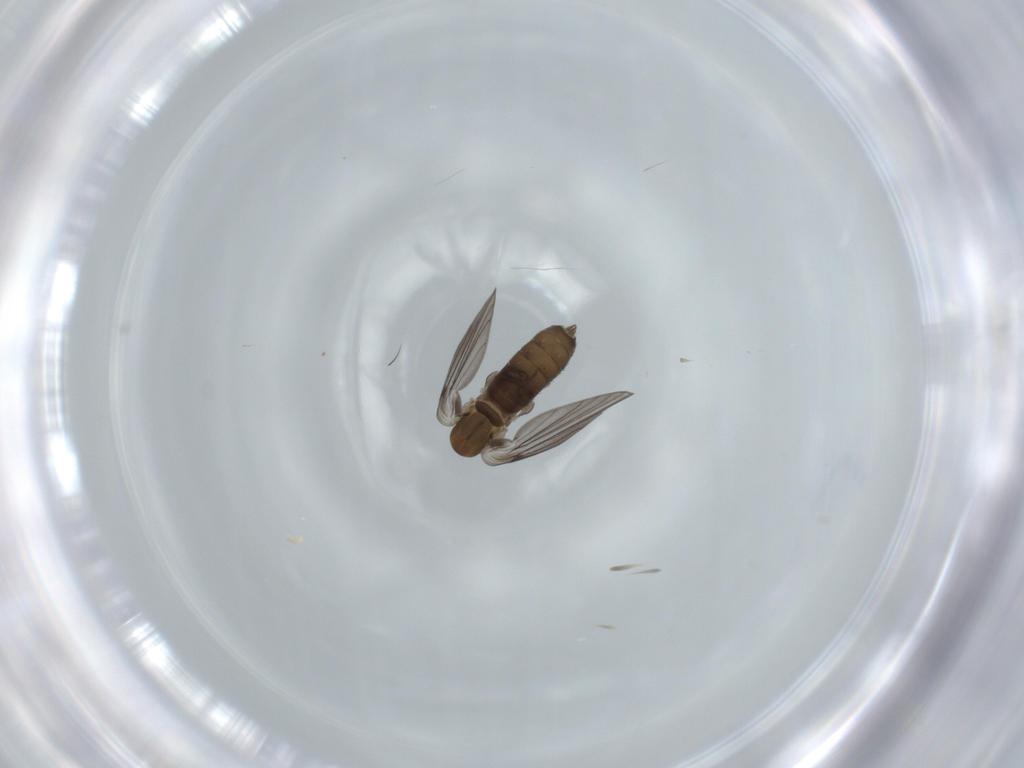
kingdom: Animalia
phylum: Arthropoda
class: Insecta
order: Diptera
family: Psychodidae
